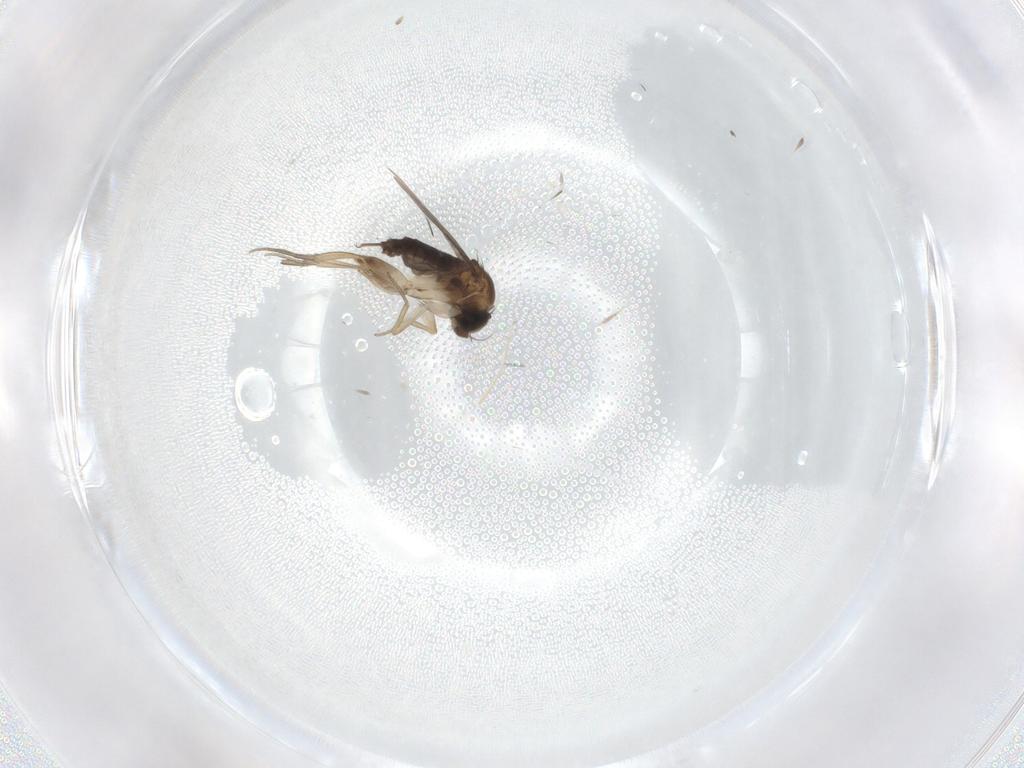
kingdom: Animalia
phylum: Arthropoda
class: Insecta
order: Diptera
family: Phoridae
